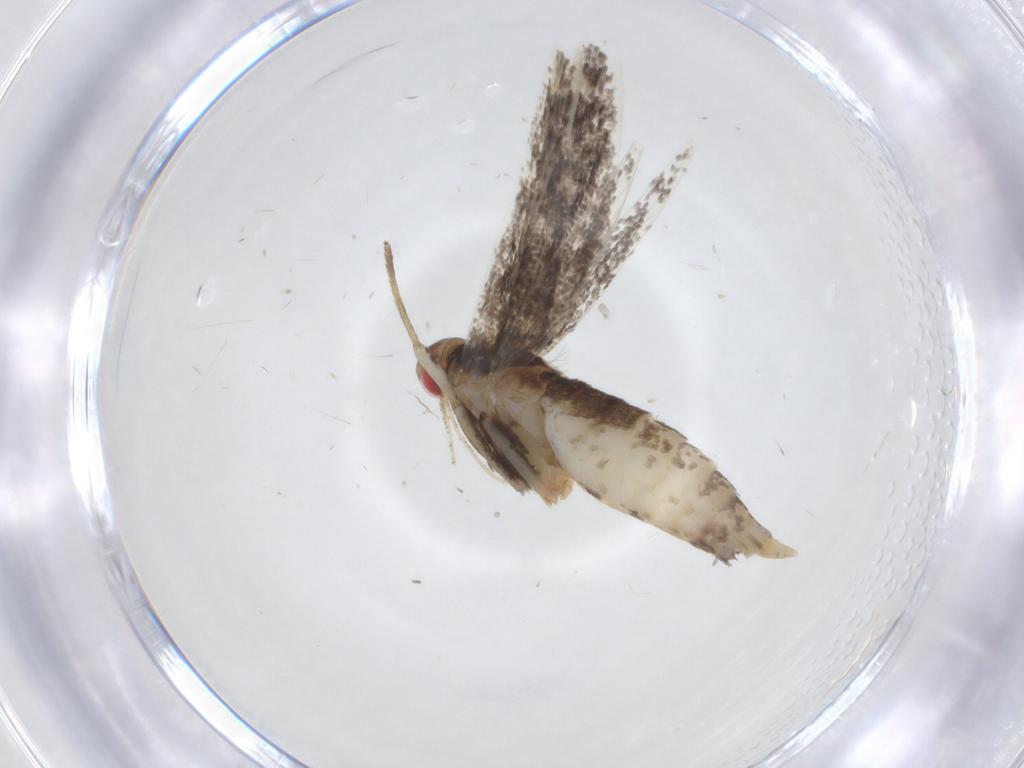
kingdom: Animalia
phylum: Arthropoda
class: Insecta
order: Lepidoptera
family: Gelechiidae
